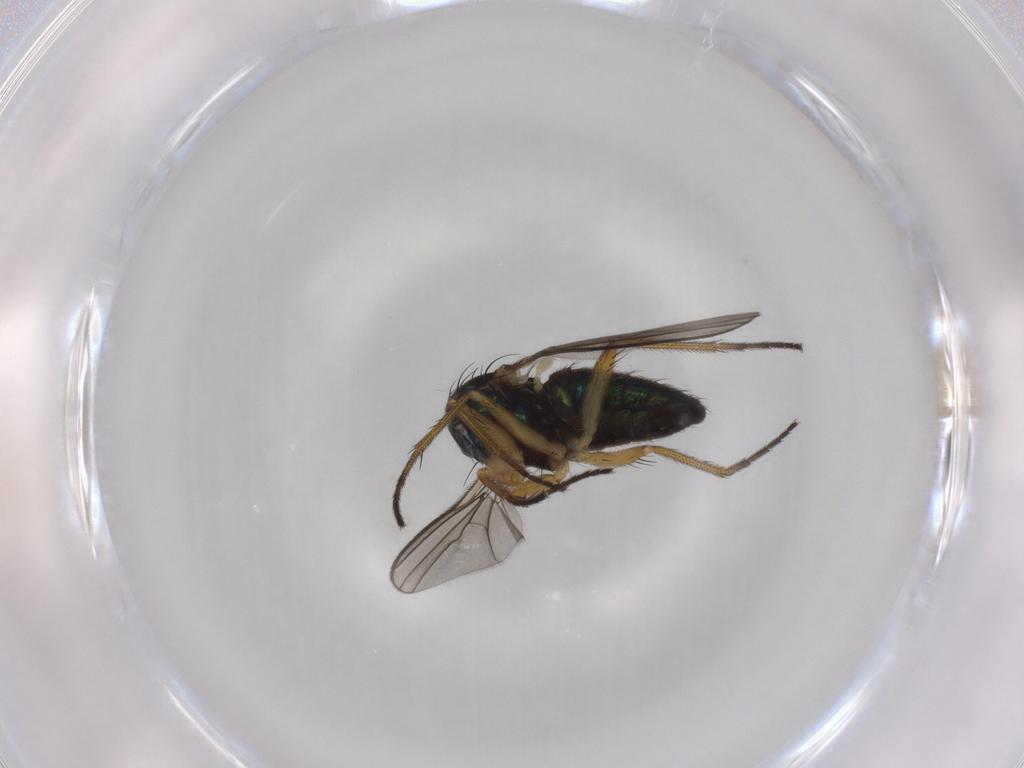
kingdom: Animalia
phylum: Arthropoda
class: Insecta
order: Diptera
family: Dolichopodidae
